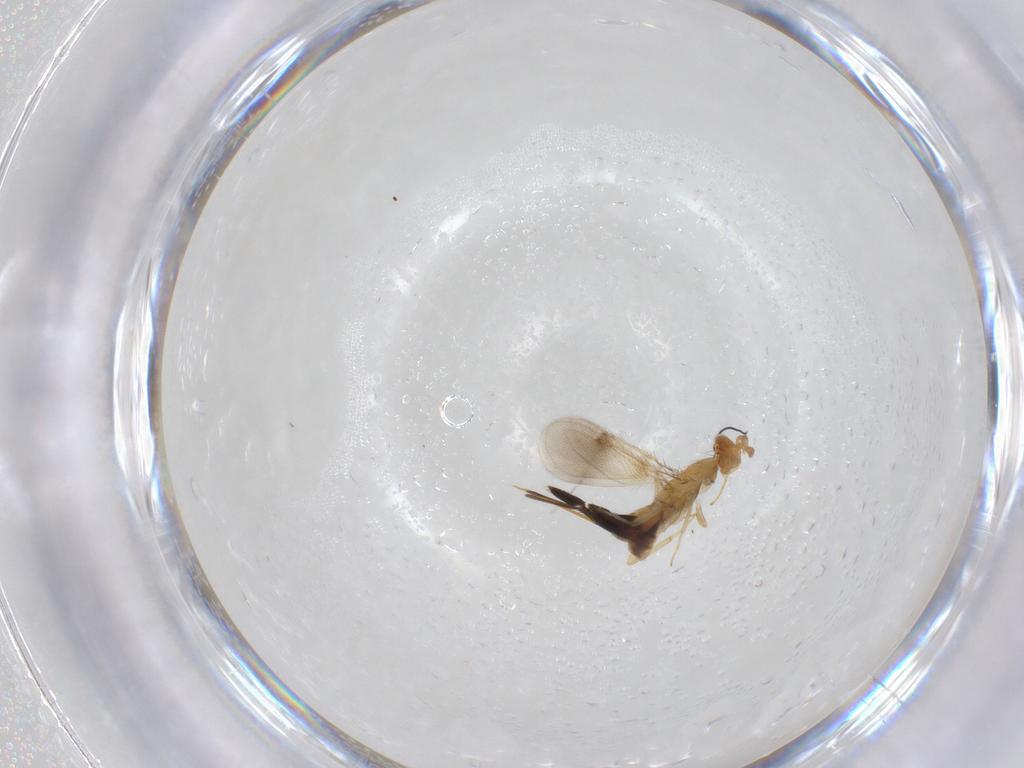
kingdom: Animalia
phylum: Arthropoda
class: Insecta
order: Hymenoptera
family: Aphelinidae
